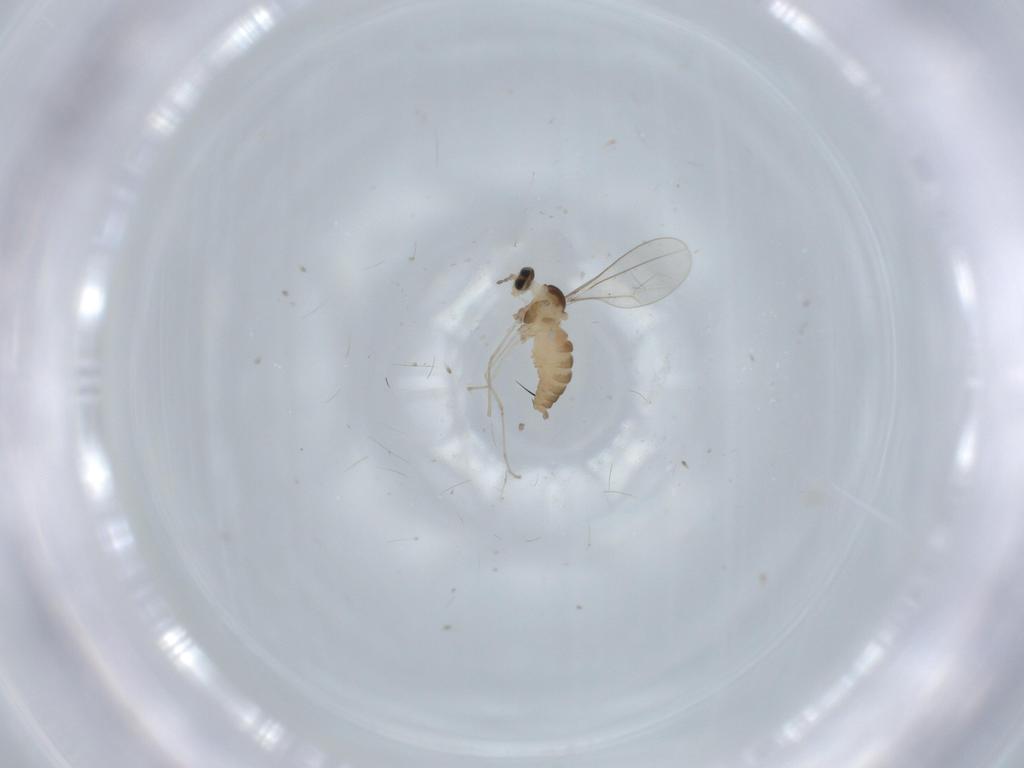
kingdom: Animalia
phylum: Arthropoda
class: Insecta
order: Diptera
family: Cecidomyiidae
